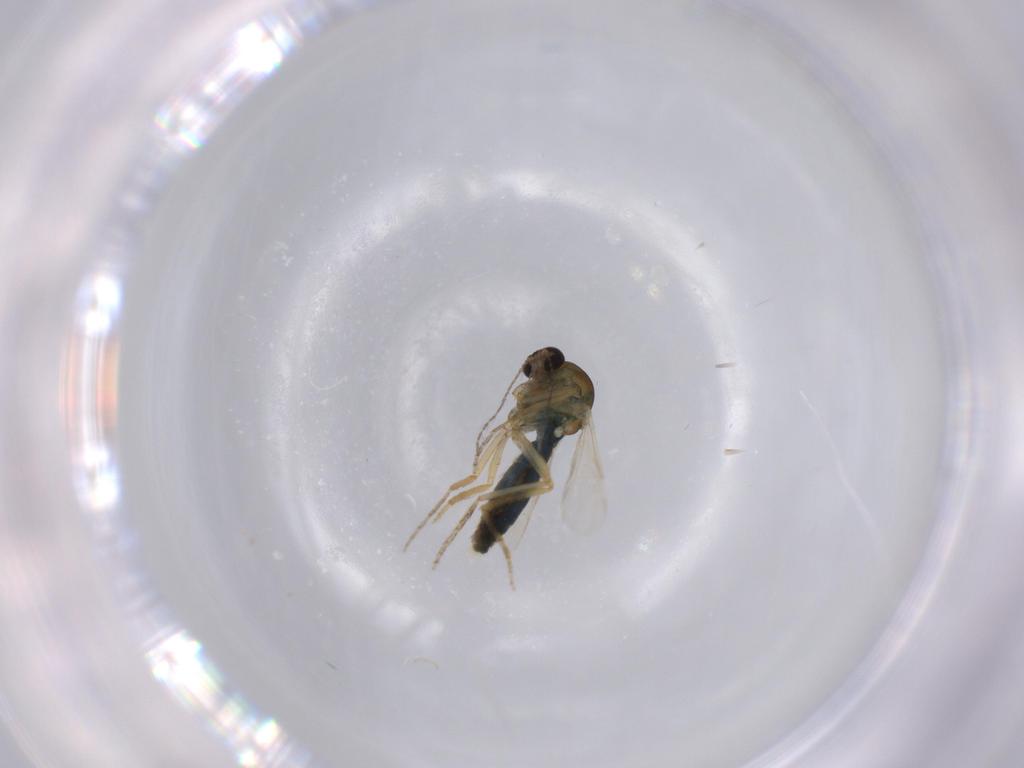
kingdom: Animalia
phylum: Arthropoda
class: Insecta
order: Diptera
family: Ceratopogonidae
